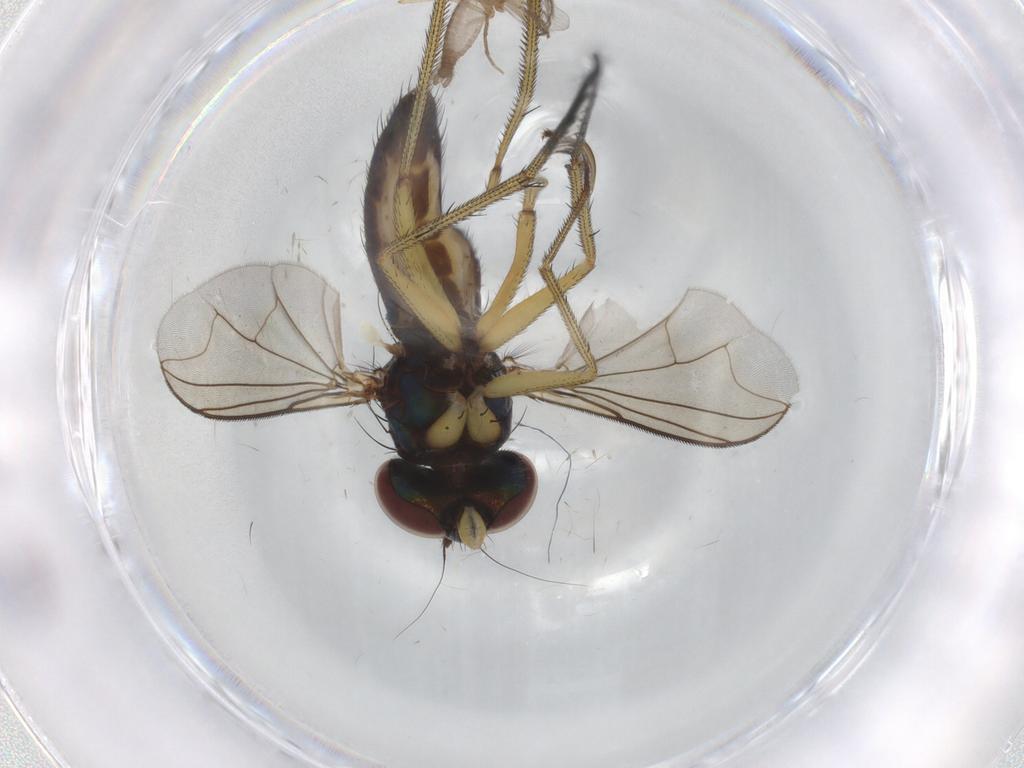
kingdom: Animalia
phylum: Arthropoda
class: Insecta
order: Diptera
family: Dolichopodidae
